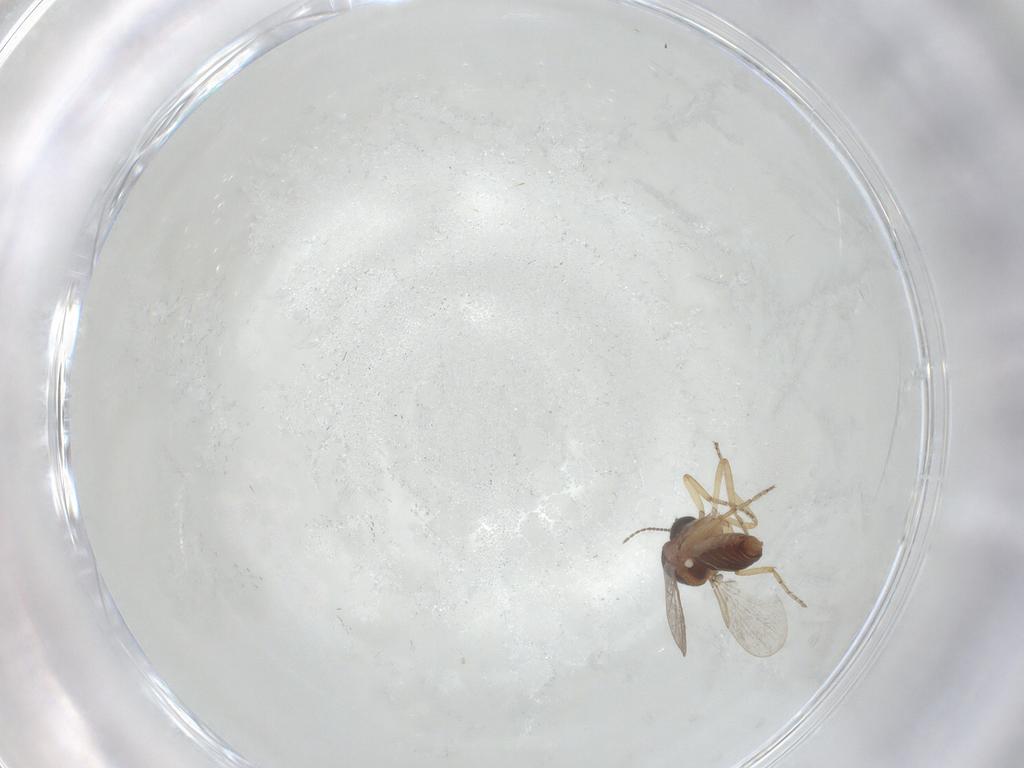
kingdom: Animalia
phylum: Arthropoda
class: Insecta
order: Diptera
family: Ceratopogonidae
